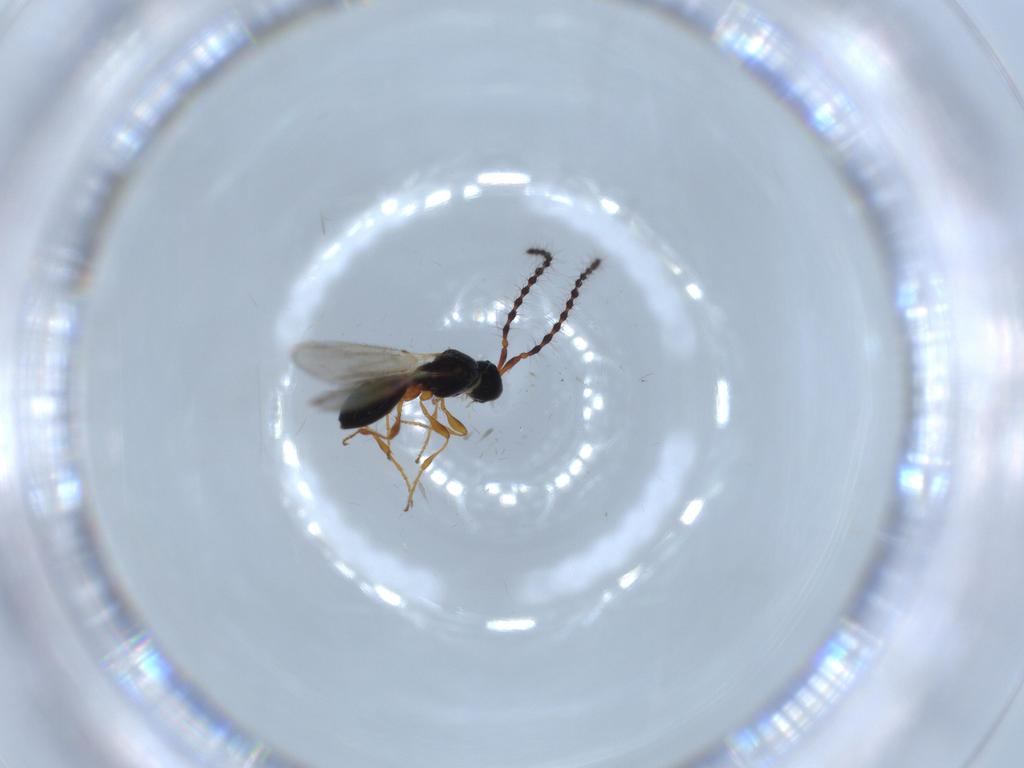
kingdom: Animalia
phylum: Arthropoda
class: Insecta
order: Hymenoptera
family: Diapriidae
